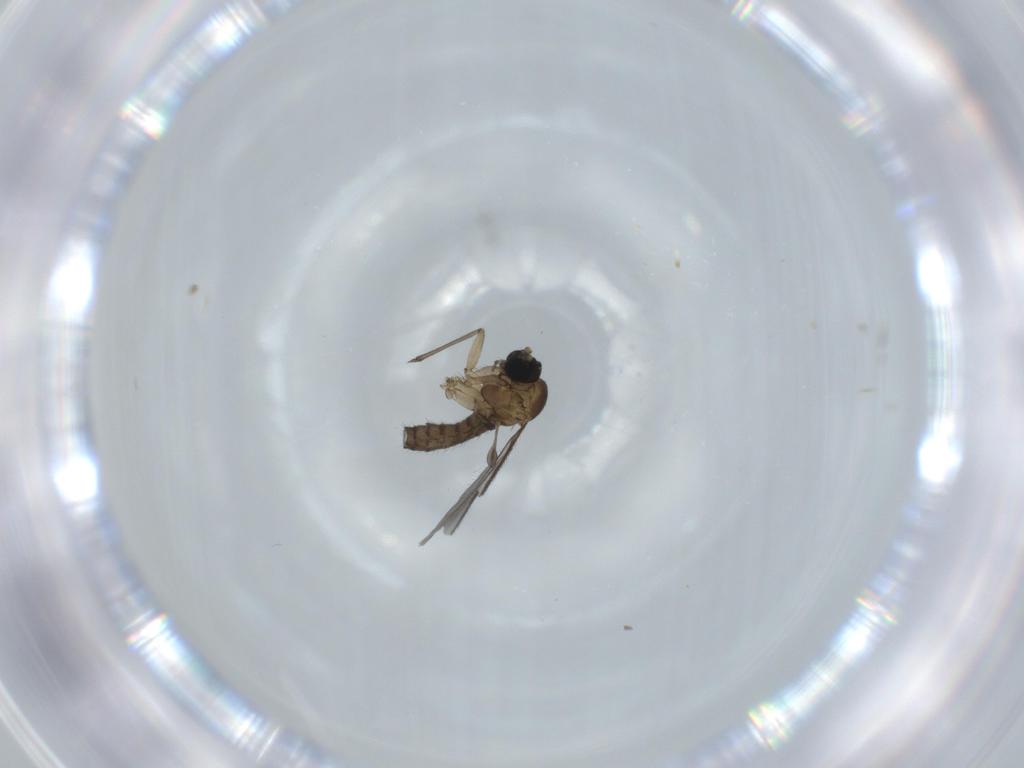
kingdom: Animalia
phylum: Arthropoda
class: Insecta
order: Diptera
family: Sciaridae
